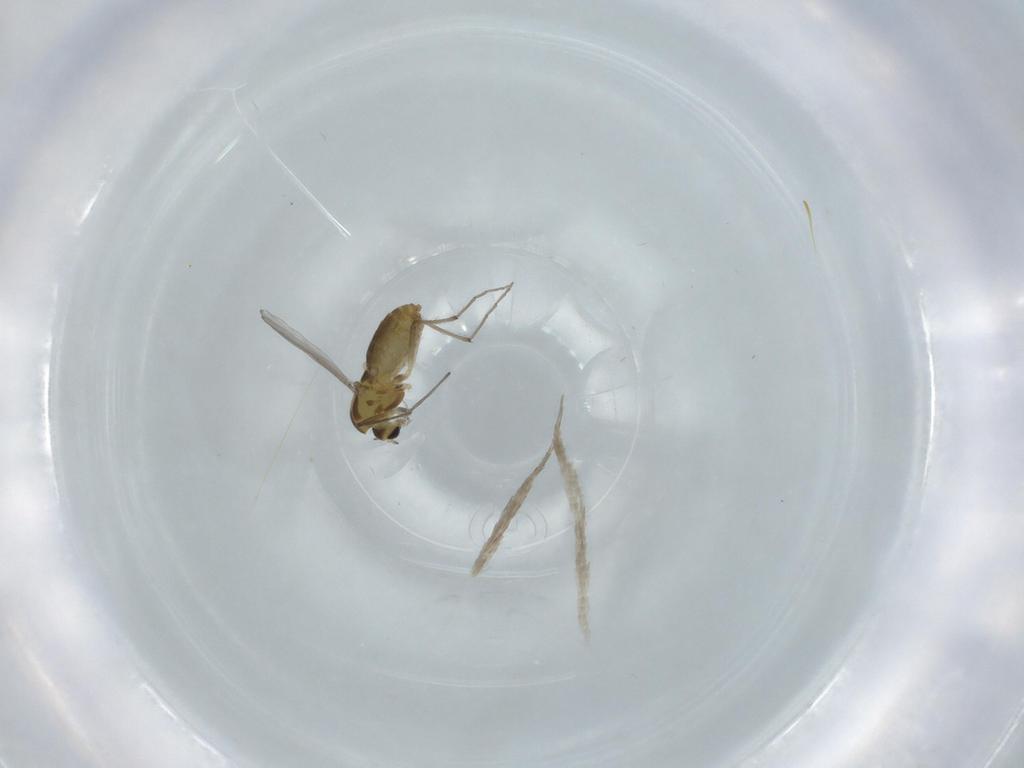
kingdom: Animalia
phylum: Arthropoda
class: Insecta
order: Diptera
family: Chironomidae
